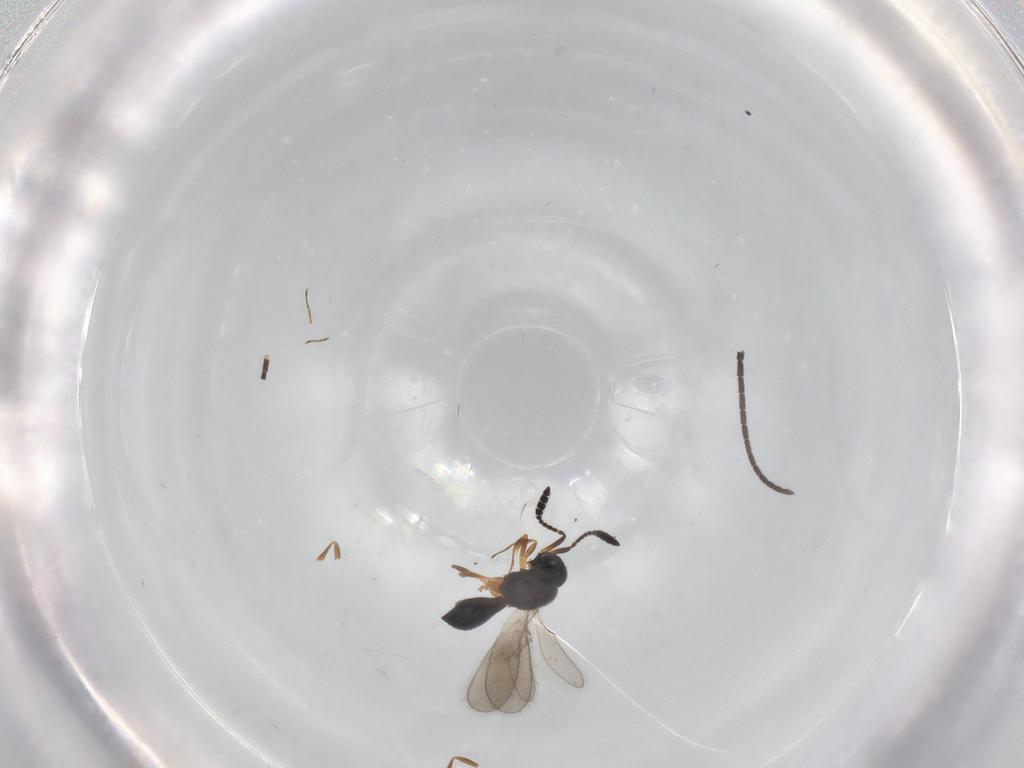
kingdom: Animalia
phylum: Arthropoda
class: Insecta
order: Hymenoptera
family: Scelionidae
